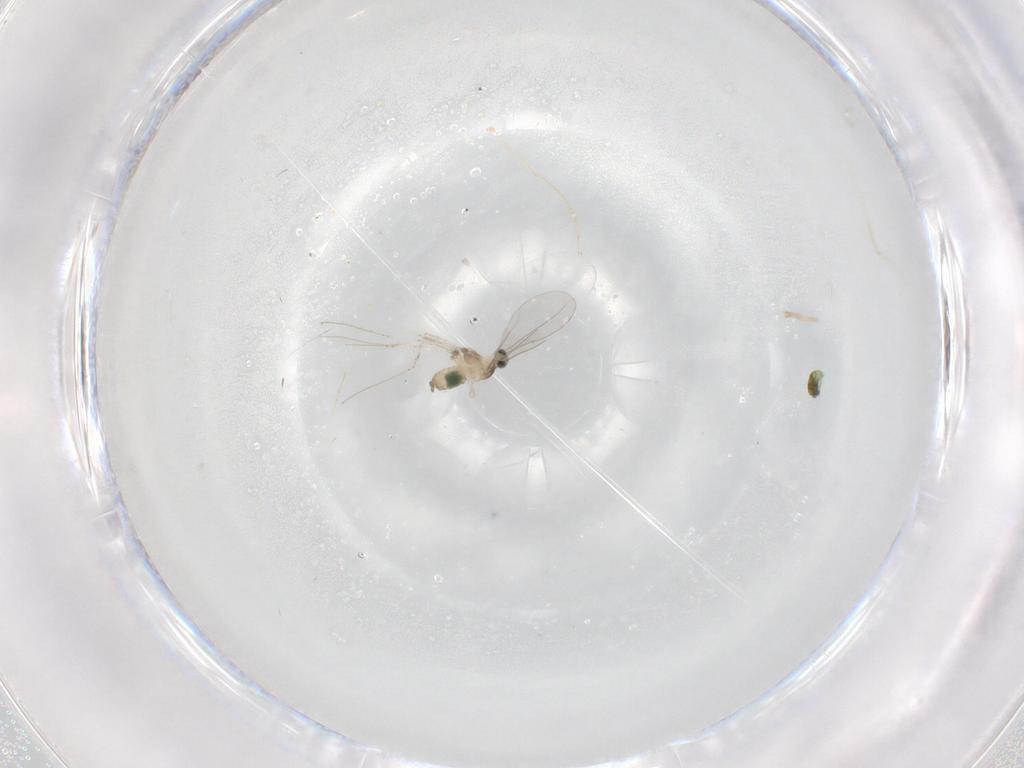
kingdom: Animalia
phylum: Arthropoda
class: Insecta
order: Diptera
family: Cecidomyiidae
